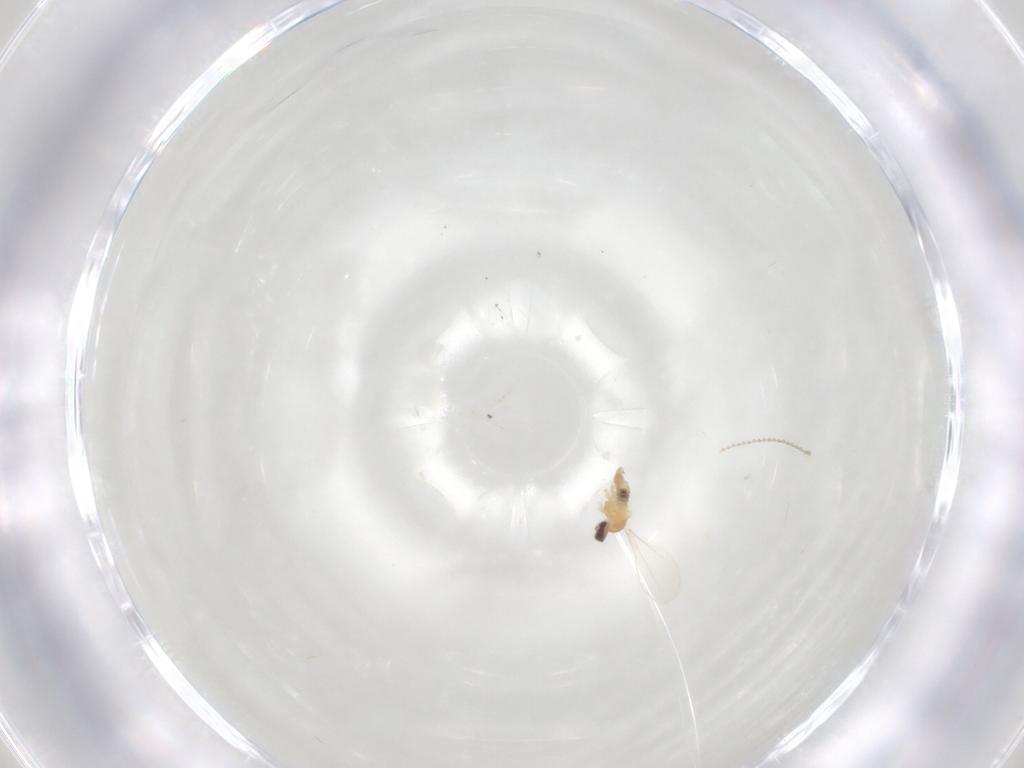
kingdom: Animalia
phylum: Arthropoda
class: Insecta
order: Diptera
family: Cecidomyiidae
